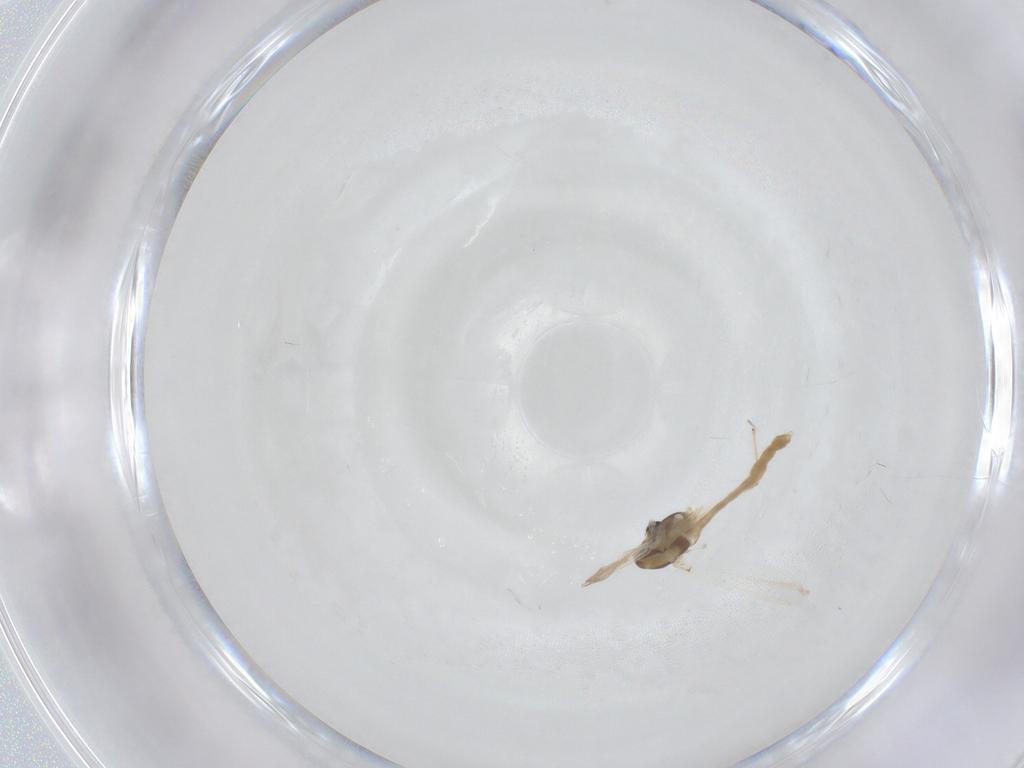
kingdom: Animalia
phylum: Arthropoda
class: Insecta
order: Diptera
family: Chironomidae
